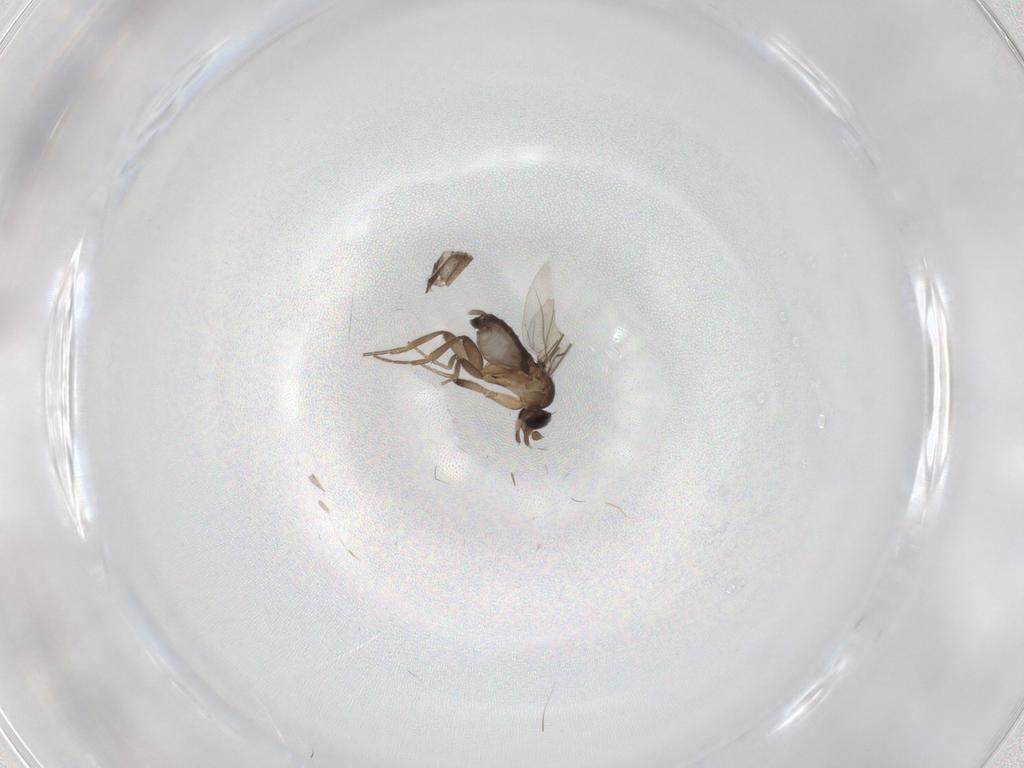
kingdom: Animalia
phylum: Arthropoda
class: Insecta
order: Diptera
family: Phoridae
